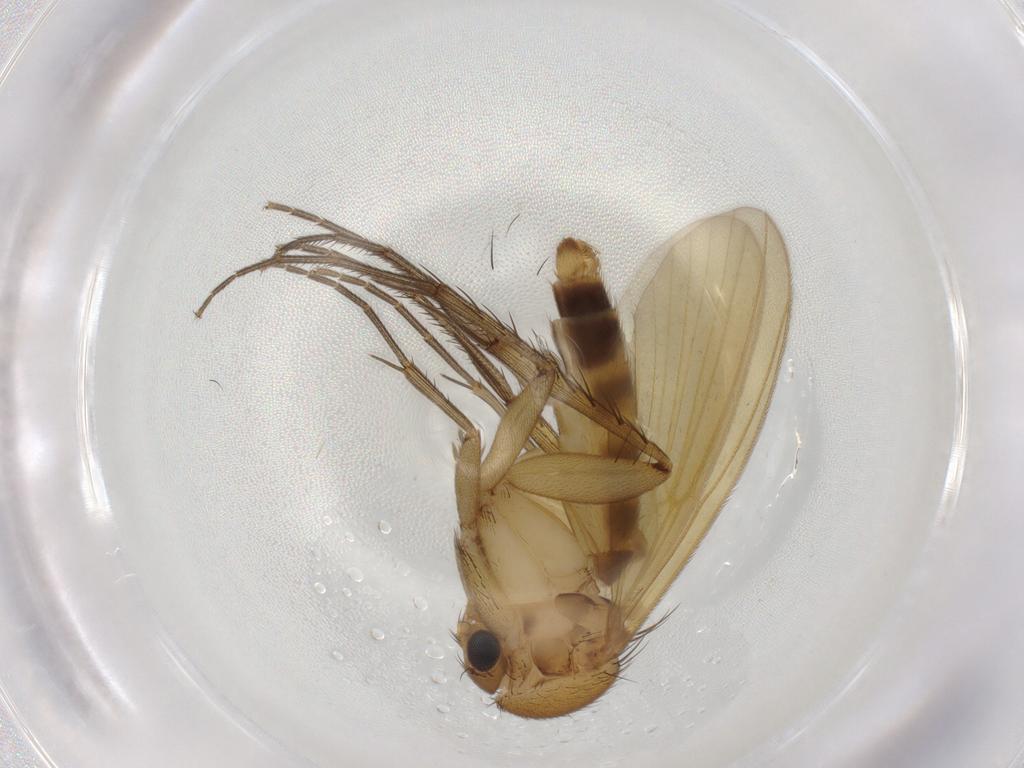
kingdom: Animalia
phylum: Arthropoda
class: Insecta
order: Diptera
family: Mycetophilidae
